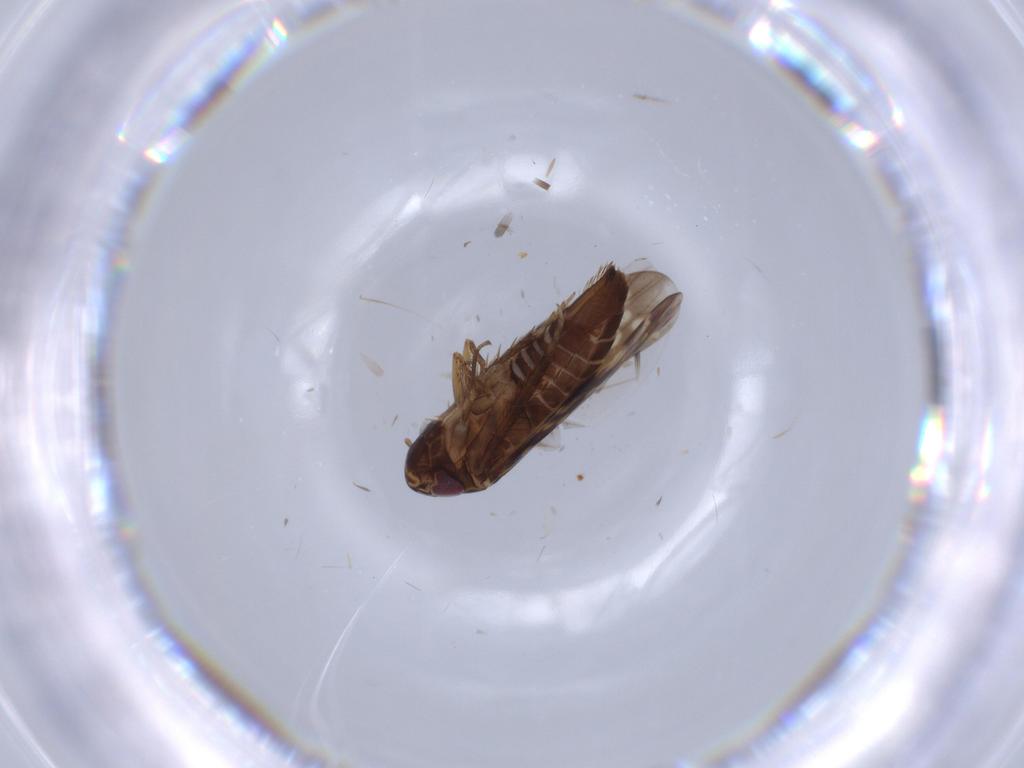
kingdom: Animalia
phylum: Arthropoda
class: Insecta
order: Hemiptera
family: Cicadellidae
